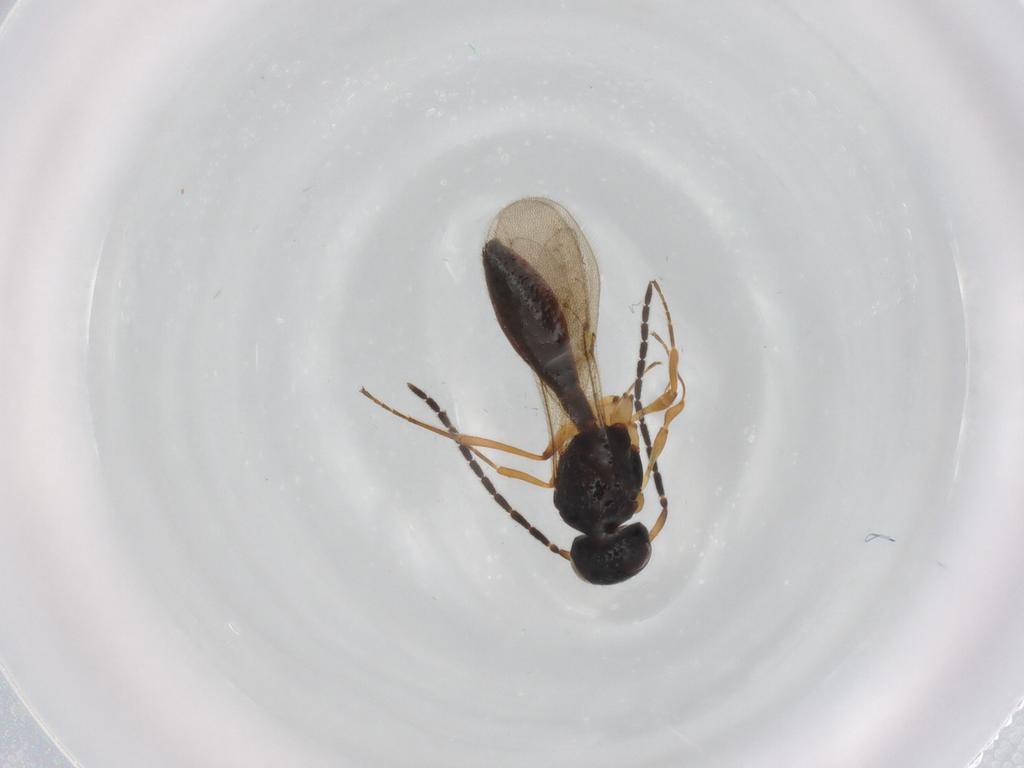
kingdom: Animalia
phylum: Arthropoda
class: Insecta
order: Hymenoptera
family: Scelionidae
